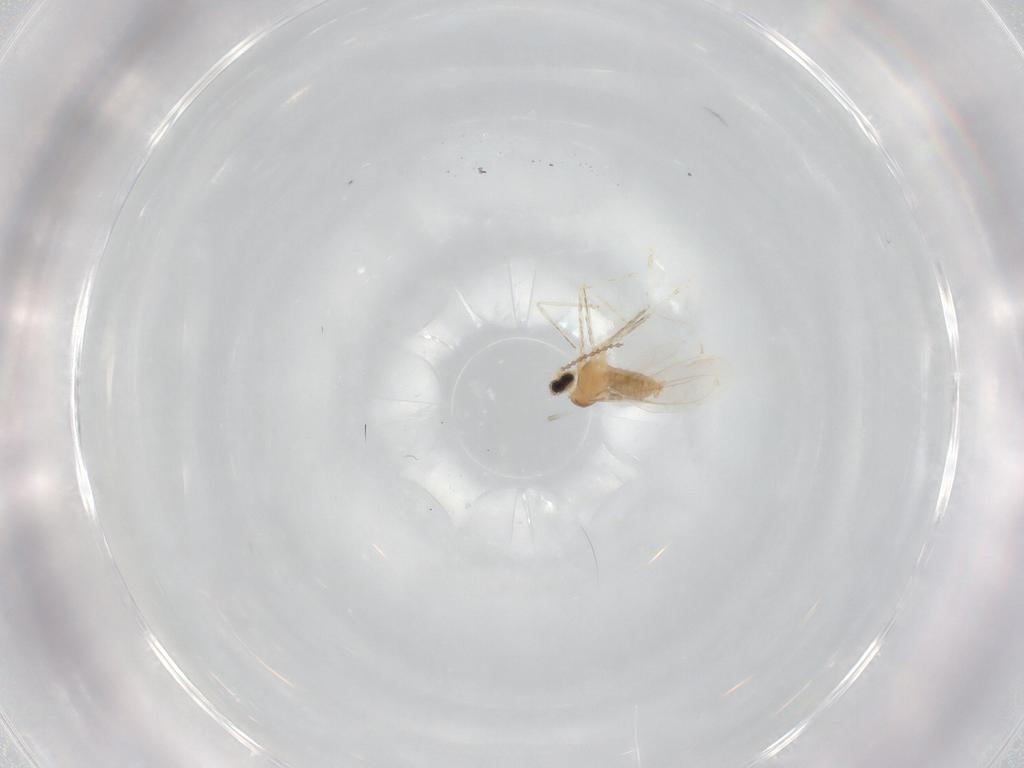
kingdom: Animalia
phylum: Arthropoda
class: Insecta
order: Diptera
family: Cecidomyiidae
